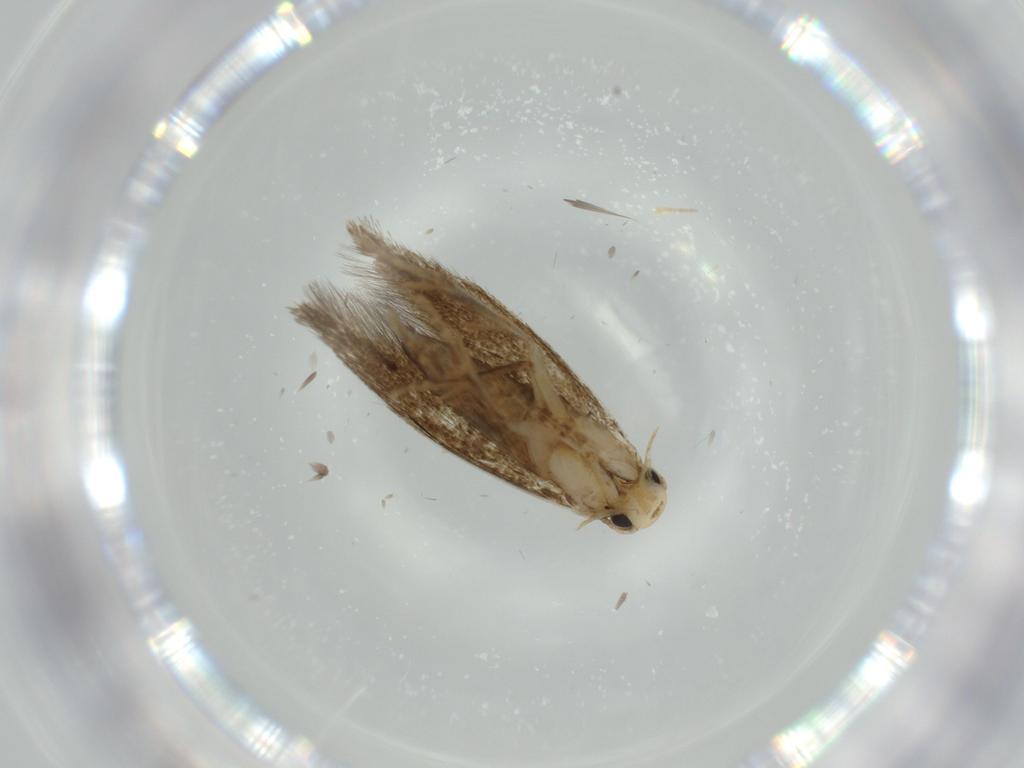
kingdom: Animalia
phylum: Arthropoda
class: Insecta
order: Lepidoptera
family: Tineidae
